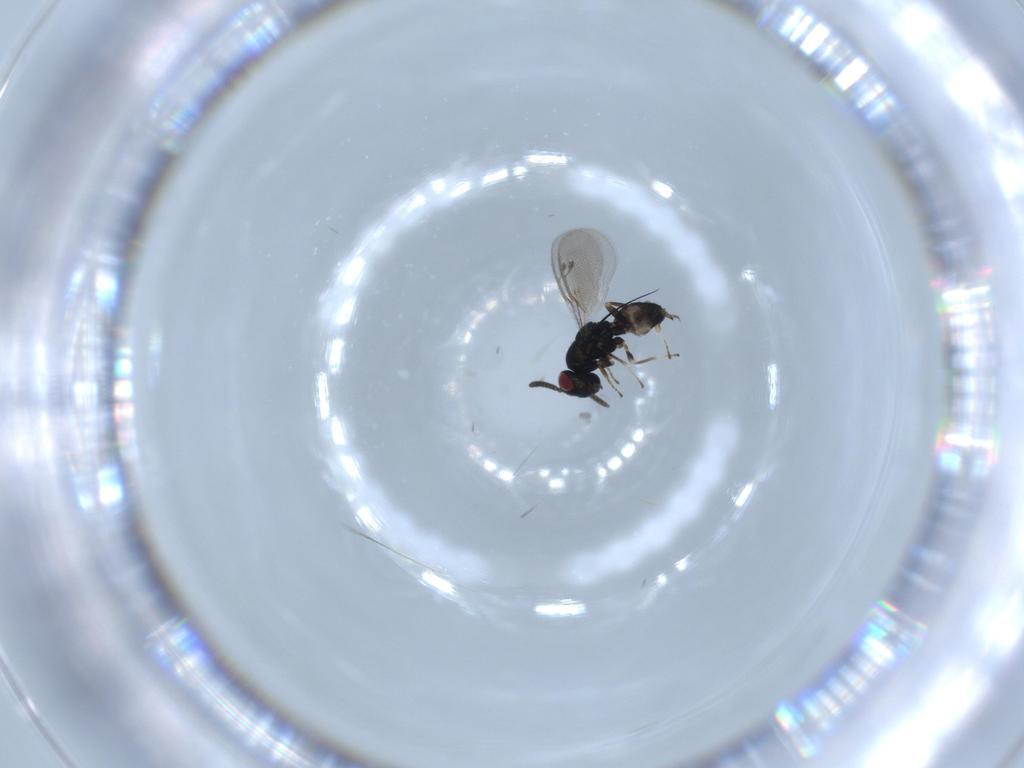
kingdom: Animalia
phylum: Arthropoda
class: Insecta
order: Hymenoptera
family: Pteromalidae
